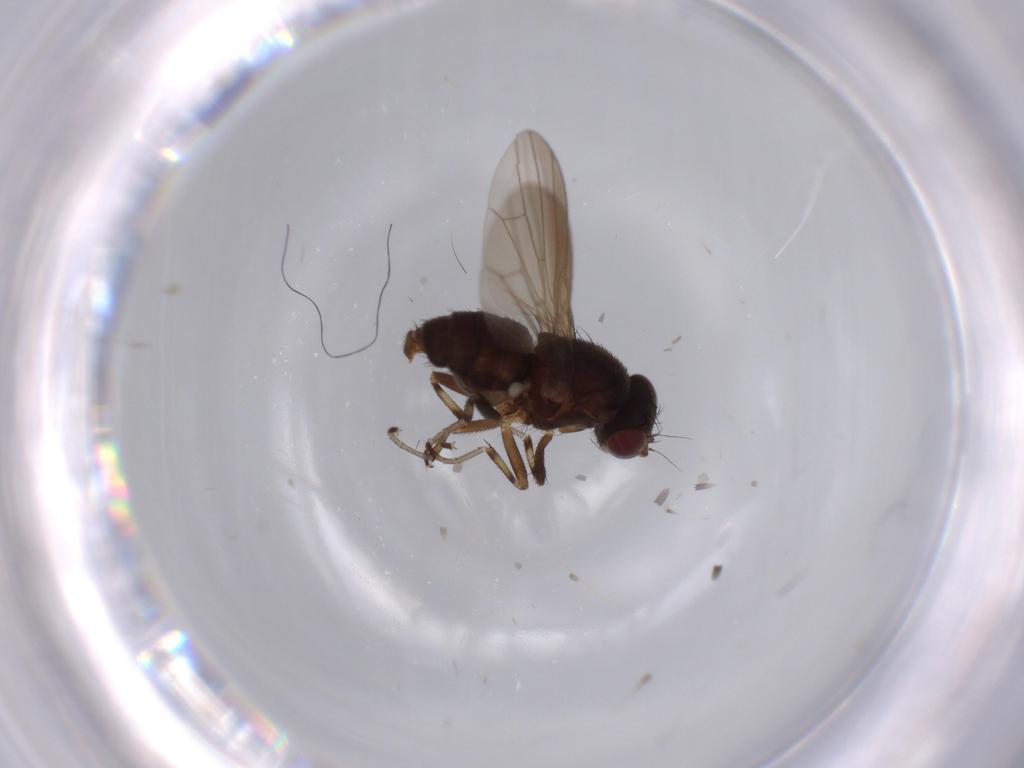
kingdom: Animalia
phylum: Arthropoda
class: Insecta
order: Diptera
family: Heleomyzidae
